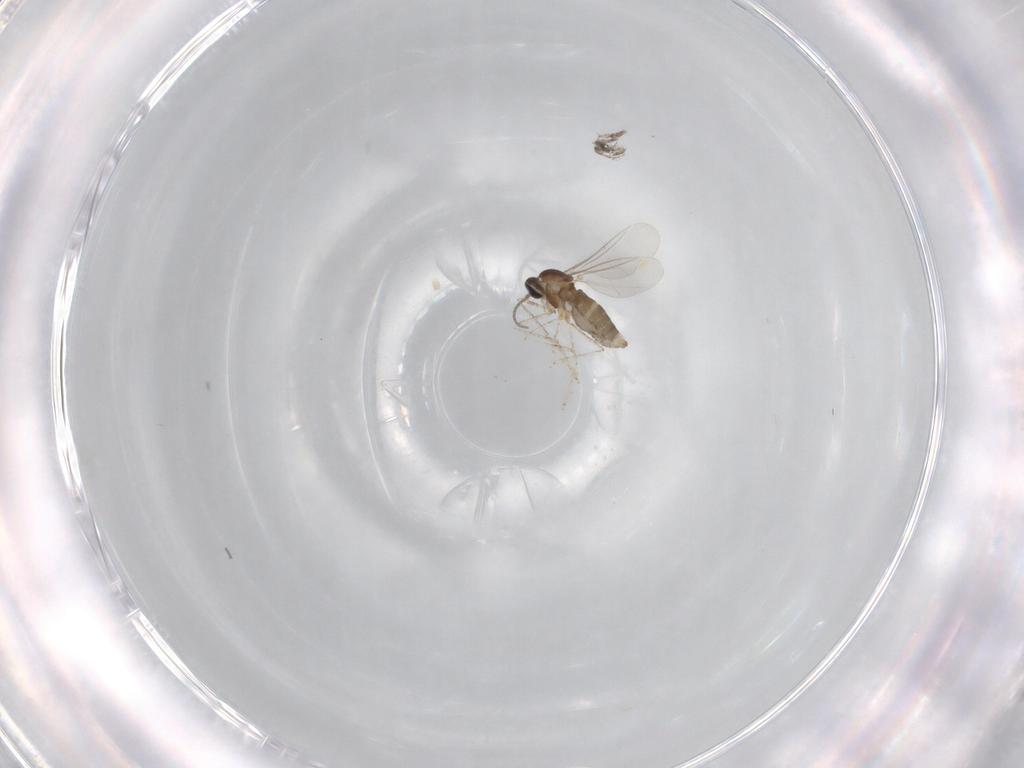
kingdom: Animalia
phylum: Arthropoda
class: Insecta
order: Diptera
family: Cecidomyiidae
